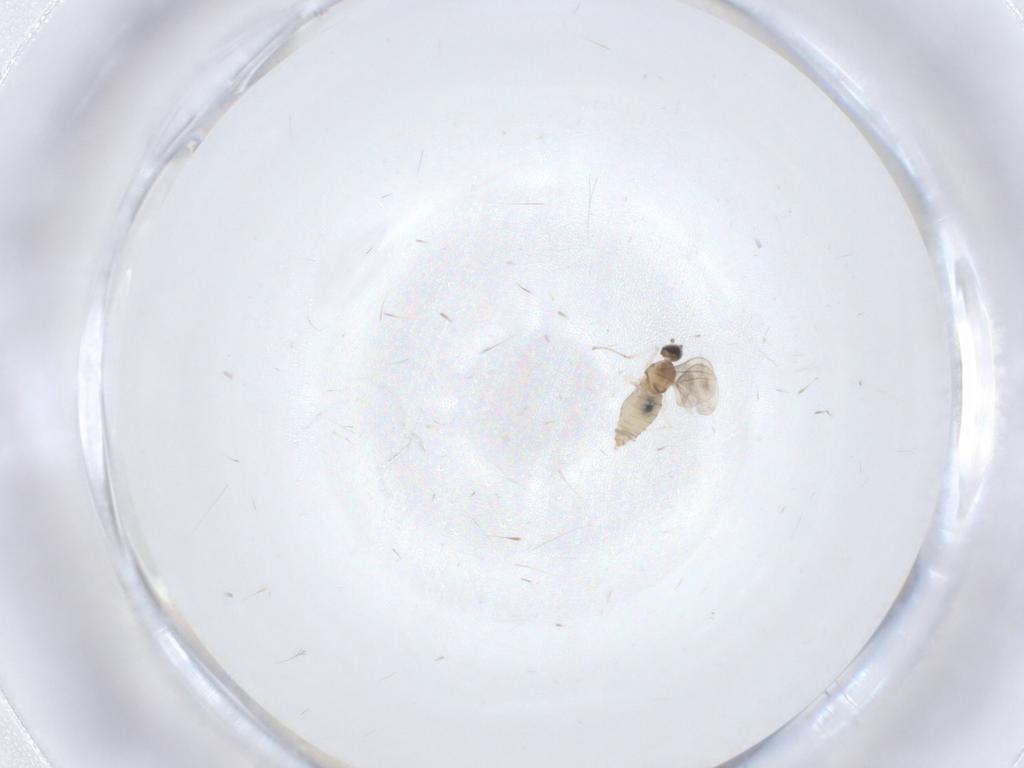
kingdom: Animalia
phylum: Arthropoda
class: Insecta
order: Diptera
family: Cecidomyiidae
